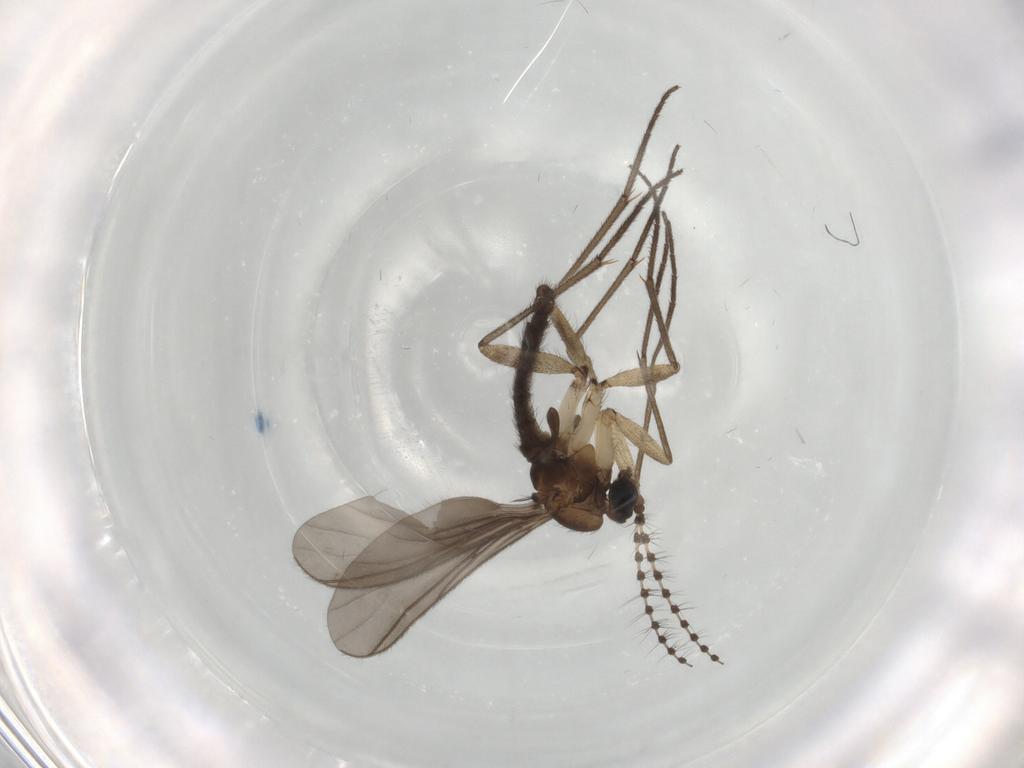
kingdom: Animalia
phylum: Arthropoda
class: Insecta
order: Diptera
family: Sciaridae
